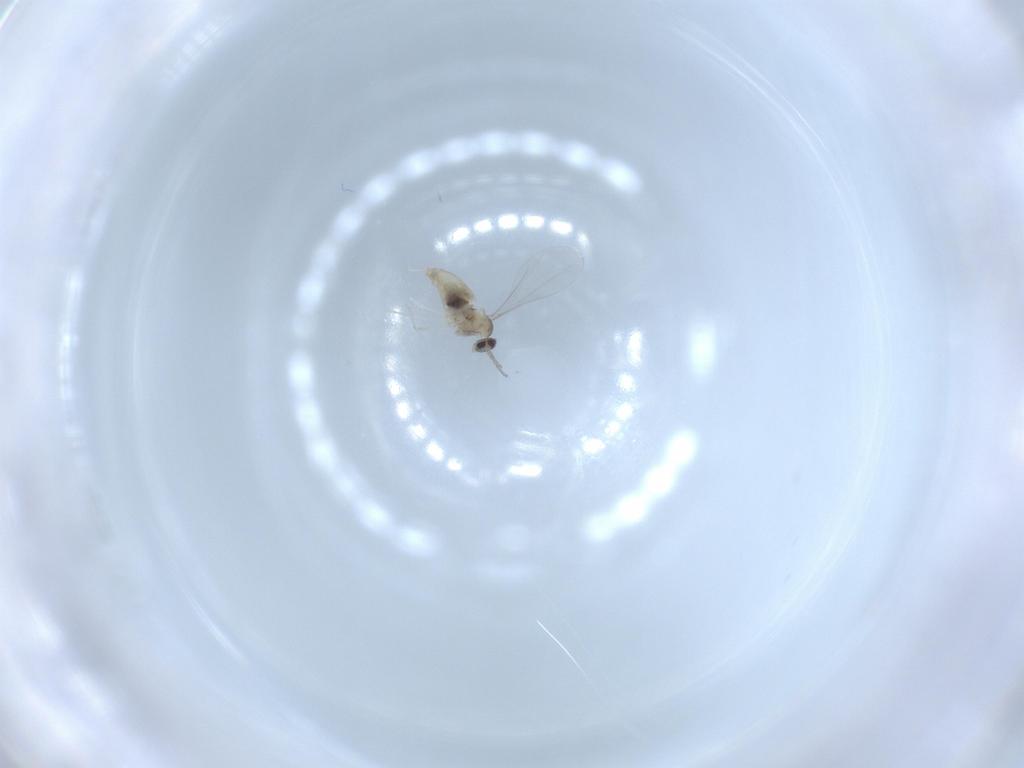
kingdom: Animalia
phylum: Arthropoda
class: Insecta
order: Diptera
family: Cecidomyiidae
